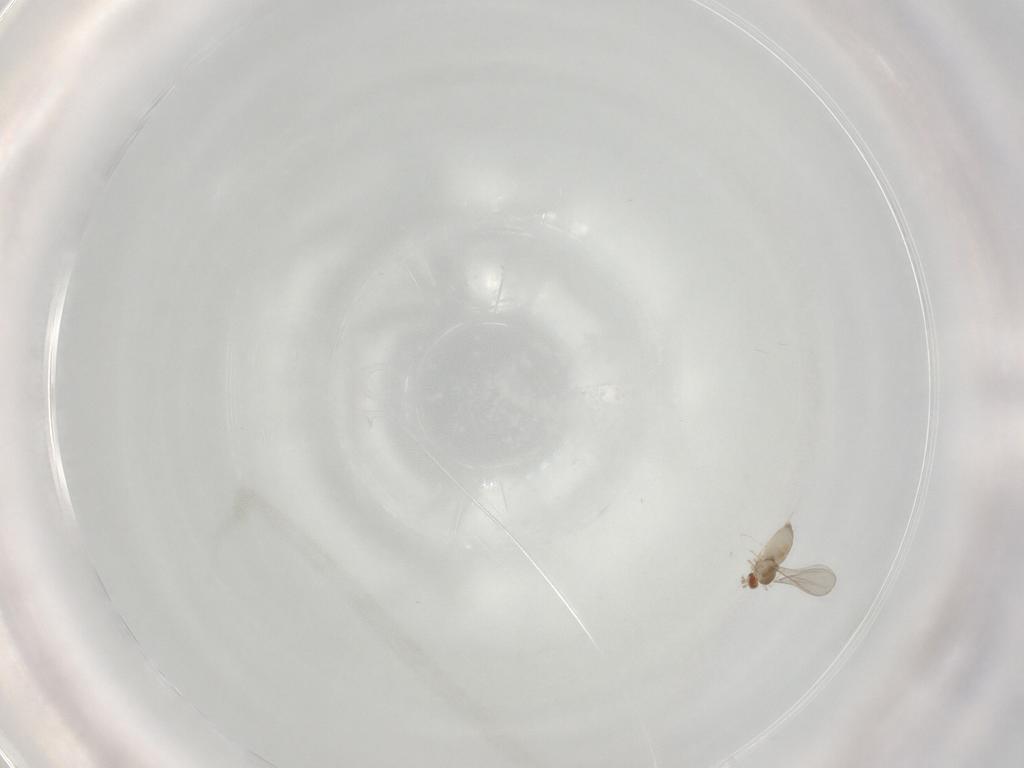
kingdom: Animalia
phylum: Arthropoda
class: Insecta
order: Diptera
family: Cecidomyiidae
